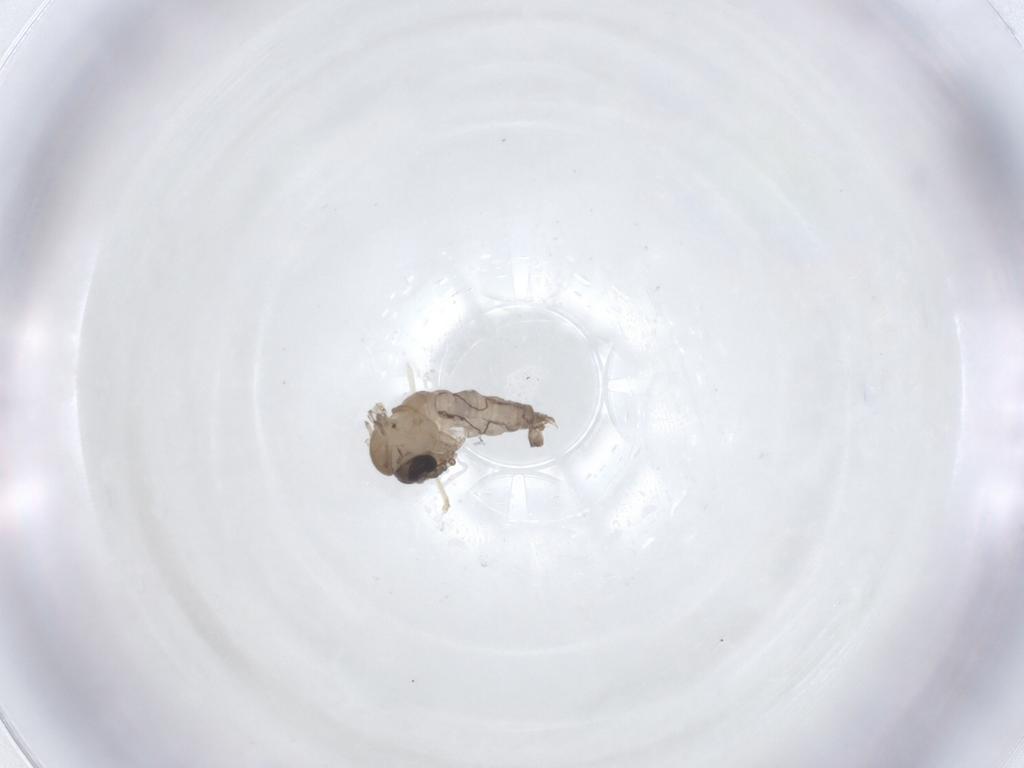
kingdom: Animalia
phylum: Arthropoda
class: Insecta
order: Diptera
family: Psychodidae
